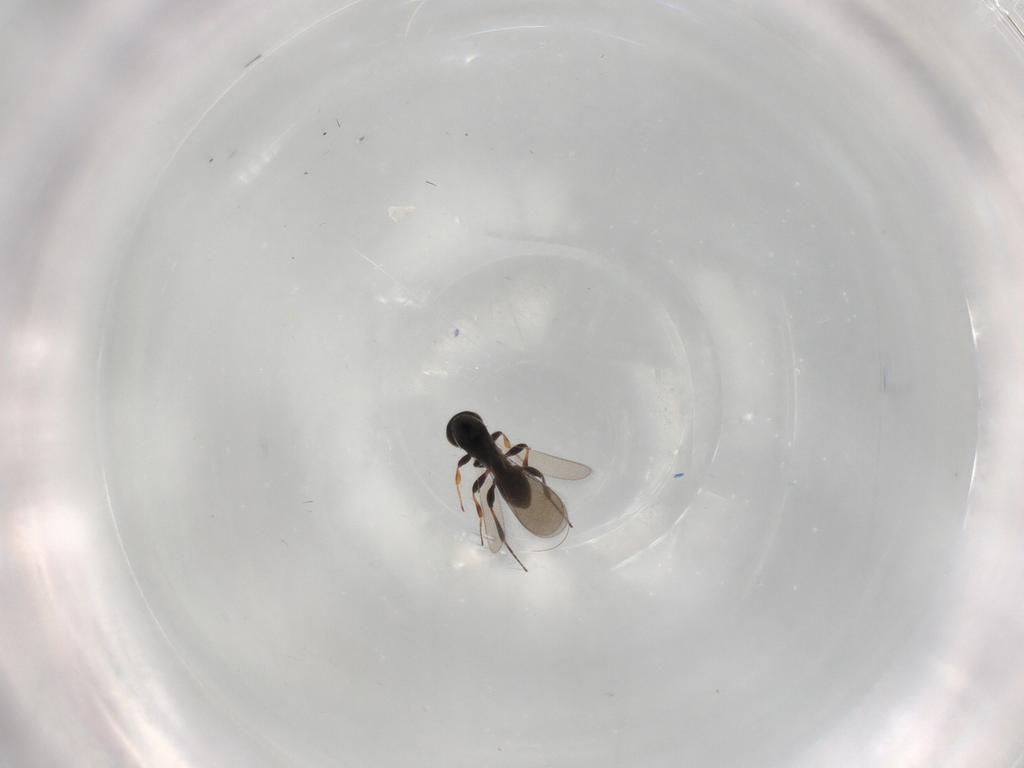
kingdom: Animalia
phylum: Arthropoda
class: Insecta
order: Hymenoptera
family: Platygastridae
